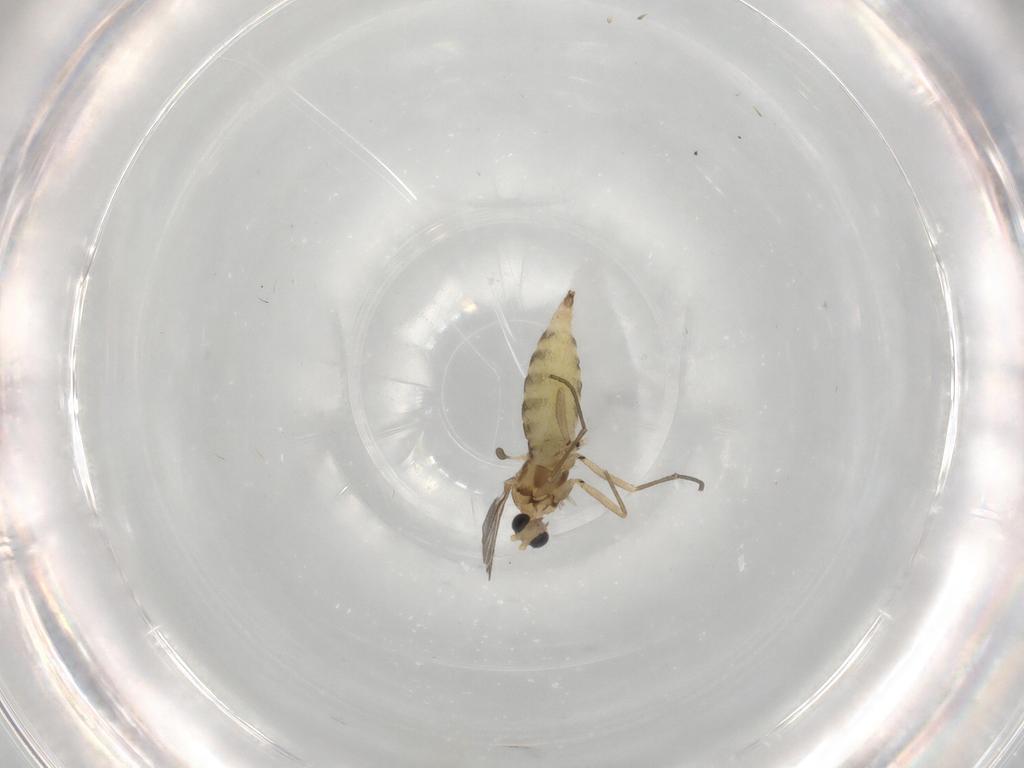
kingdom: Animalia
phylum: Arthropoda
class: Insecta
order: Diptera
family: Sciaridae
